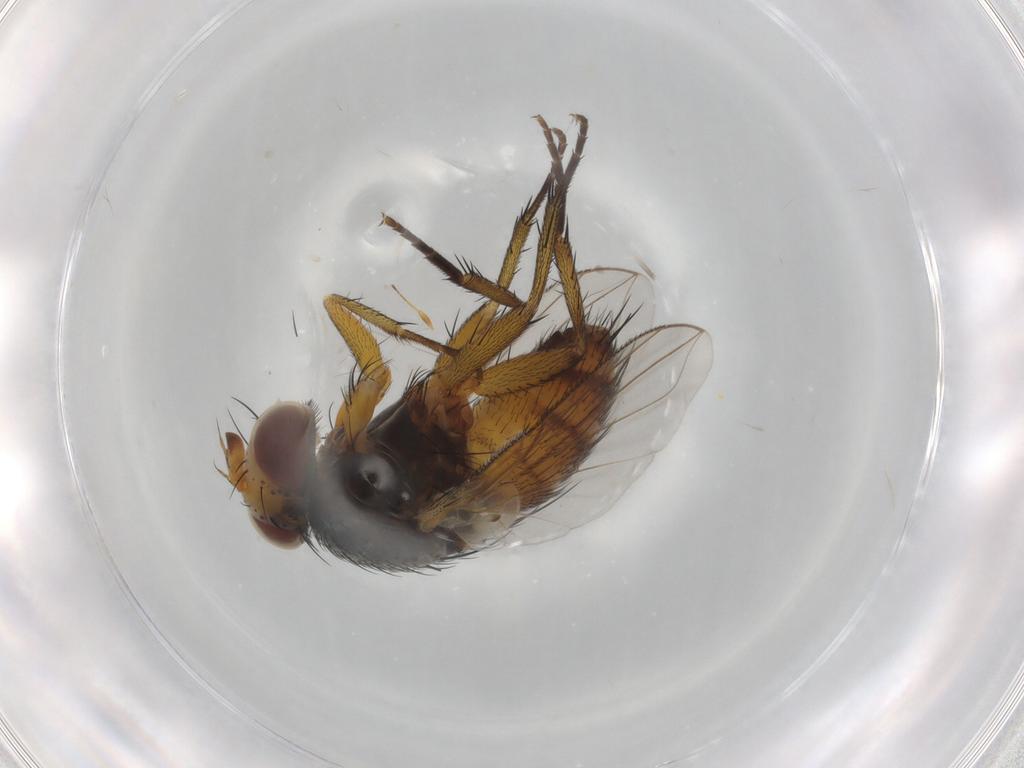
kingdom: Animalia
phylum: Arthropoda
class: Insecta
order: Diptera
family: Tachinidae
